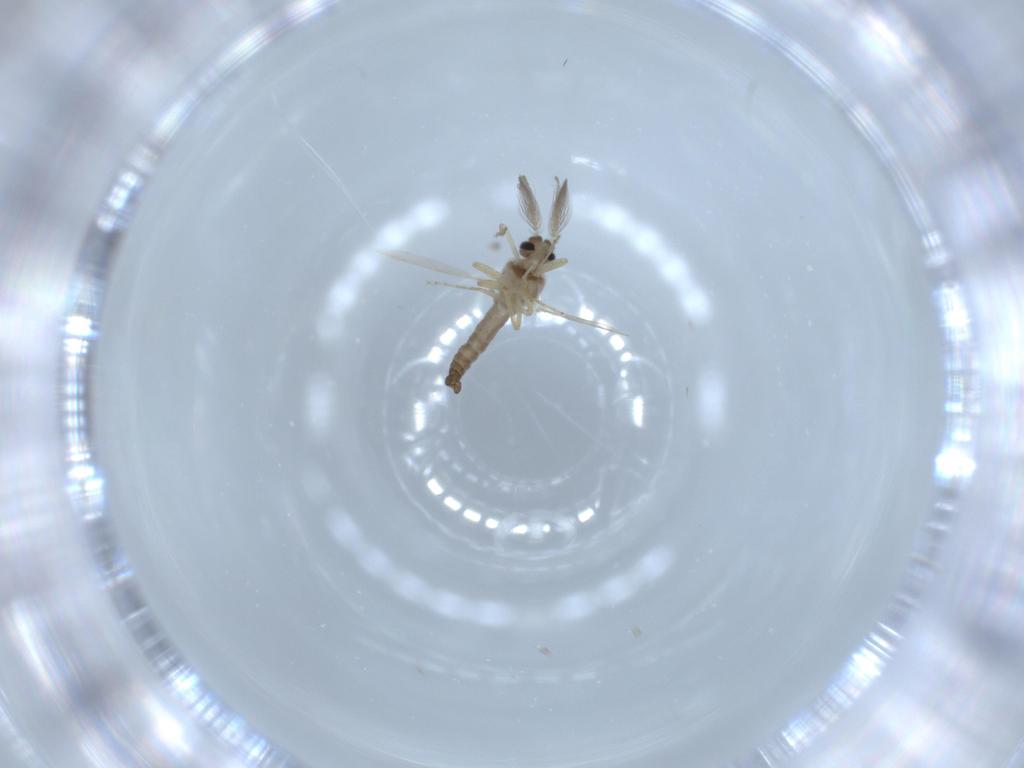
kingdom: Animalia
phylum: Arthropoda
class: Insecta
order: Diptera
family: Ceratopogonidae
